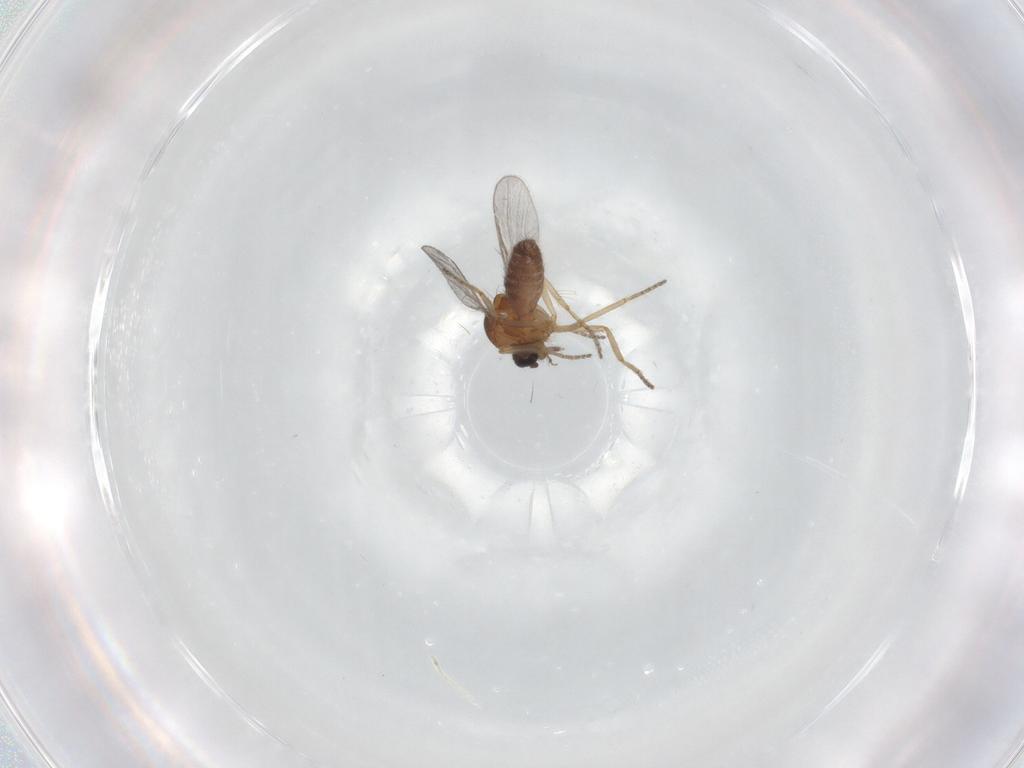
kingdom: Animalia
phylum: Arthropoda
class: Insecta
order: Diptera
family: Ceratopogonidae
